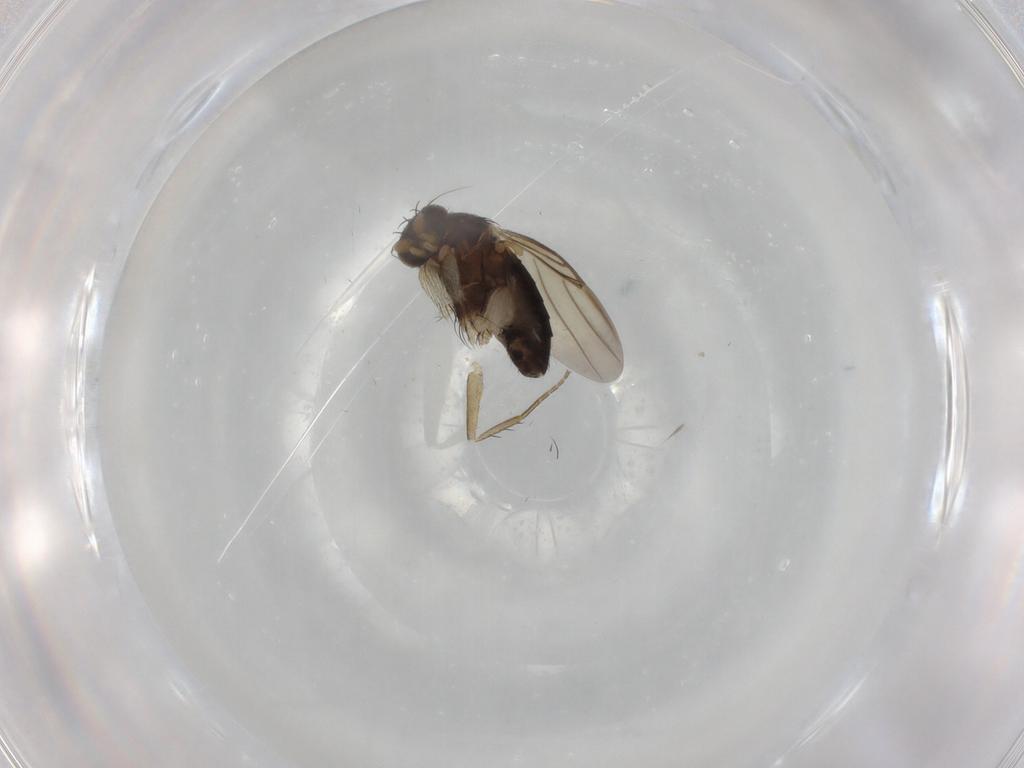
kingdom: Animalia
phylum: Arthropoda
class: Insecta
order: Diptera
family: Phoridae
